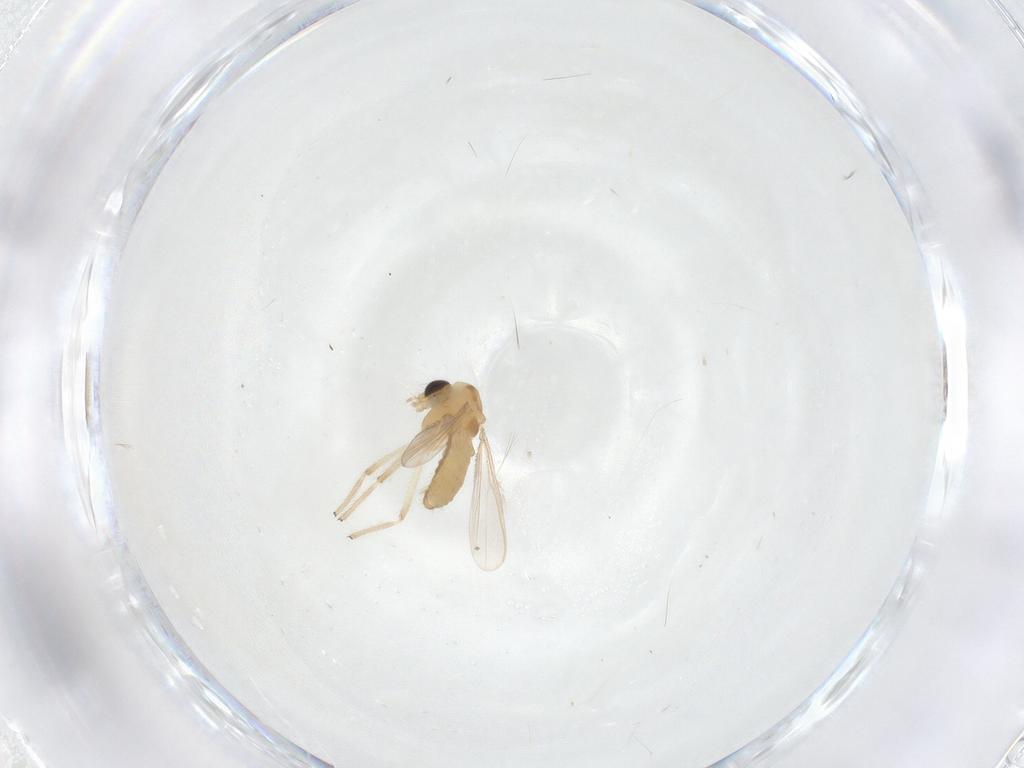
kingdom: Animalia
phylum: Arthropoda
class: Insecta
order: Diptera
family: Chironomidae
